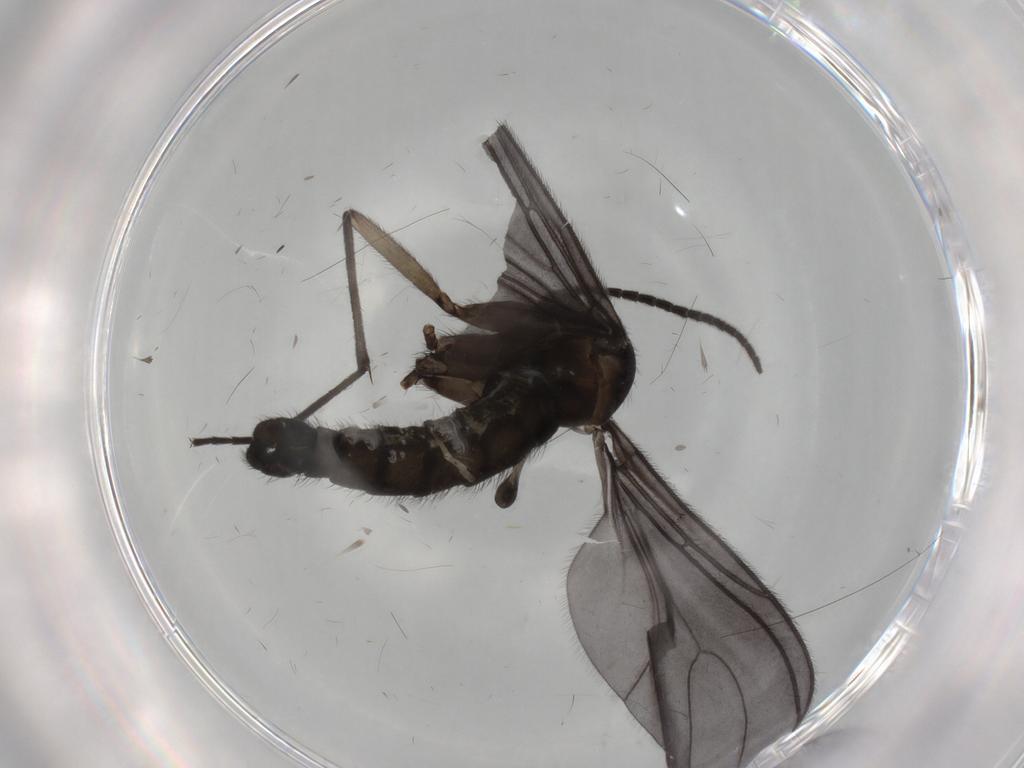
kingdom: Animalia
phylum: Arthropoda
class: Insecta
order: Diptera
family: Sciaridae
